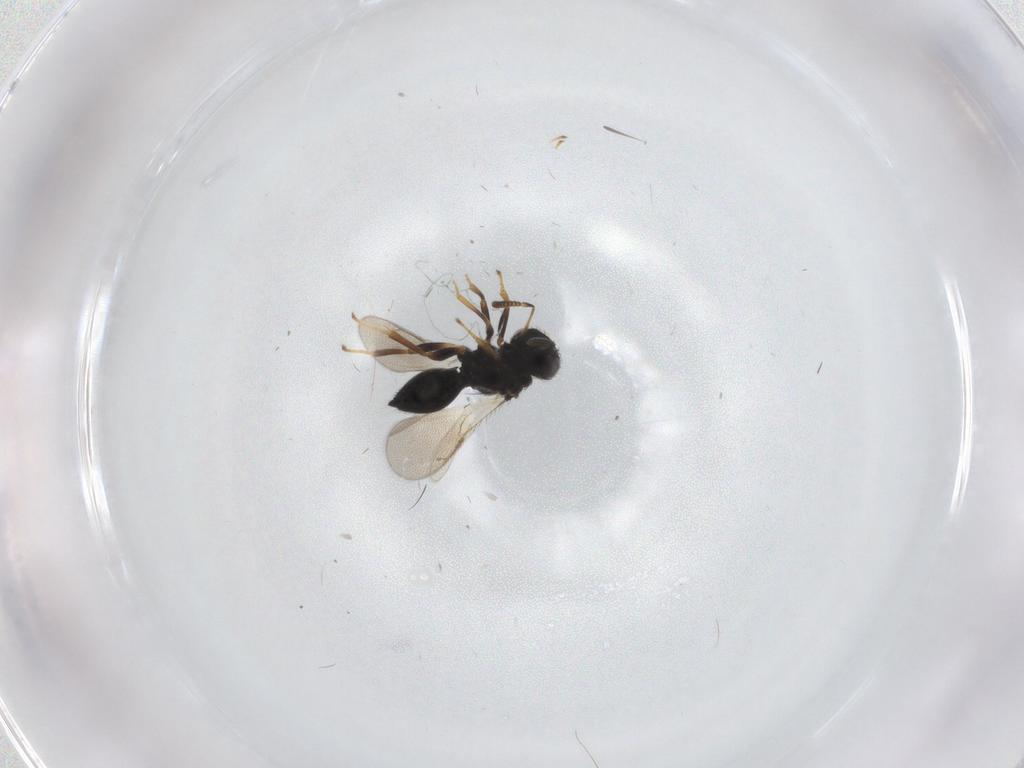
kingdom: Animalia
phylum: Arthropoda
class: Insecta
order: Hymenoptera
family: Pteromalidae
